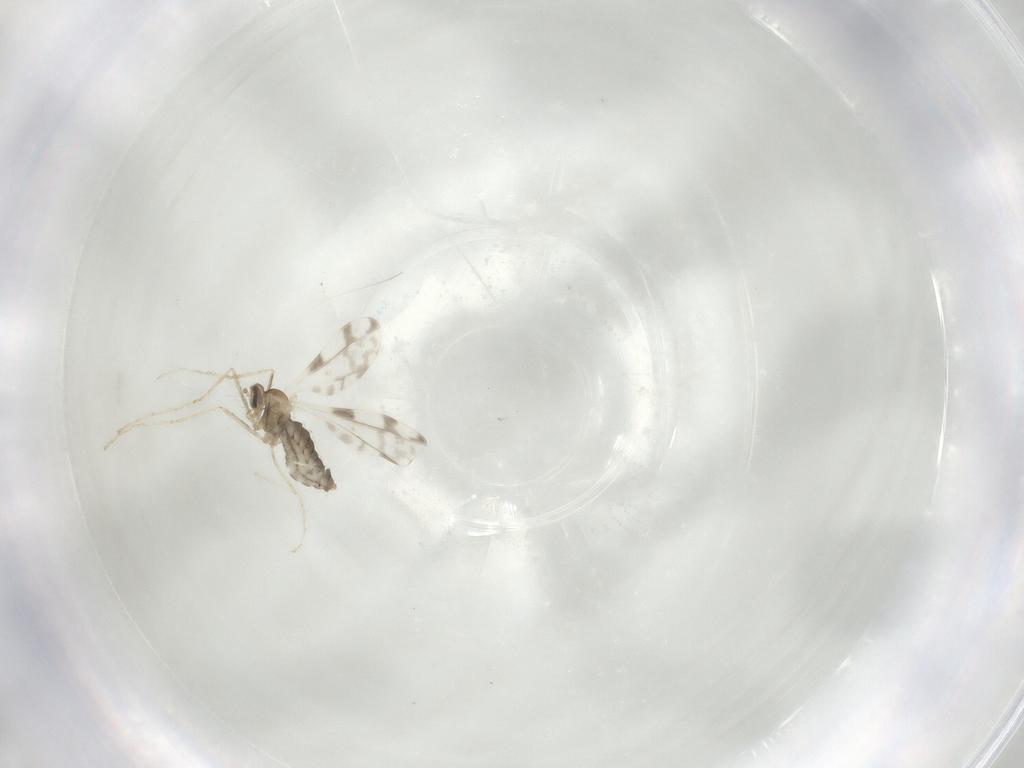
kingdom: Animalia
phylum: Arthropoda
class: Insecta
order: Diptera
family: Cecidomyiidae
